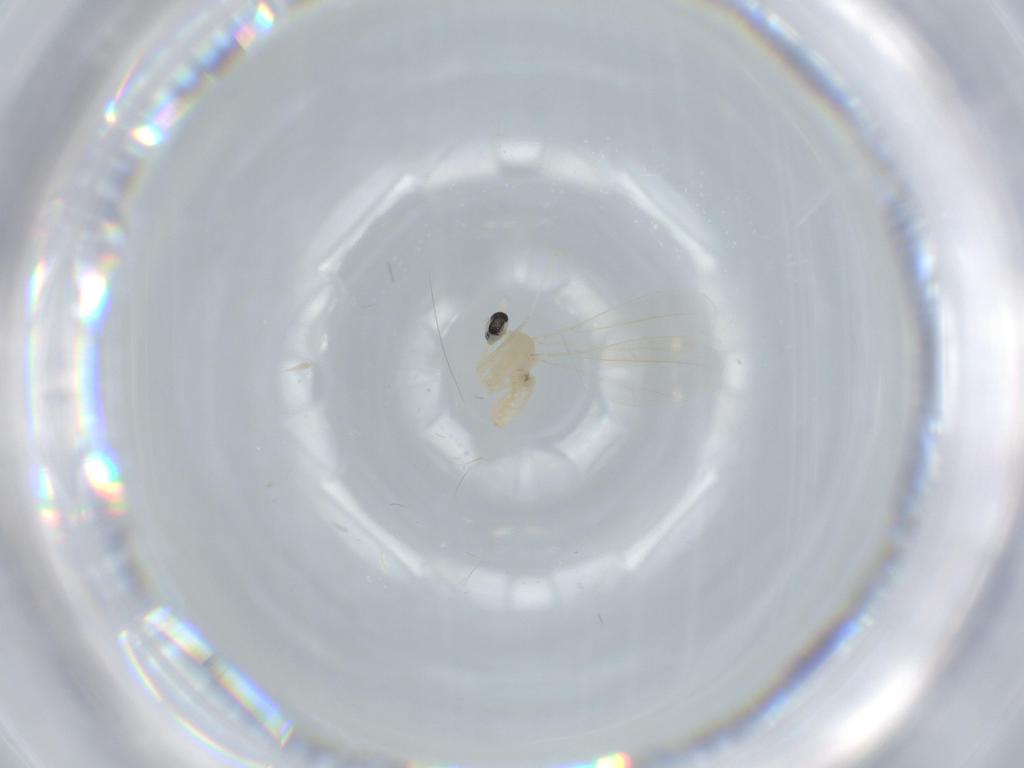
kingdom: Animalia
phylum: Arthropoda
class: Insecta
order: Diptera
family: Cecidomyiidae
